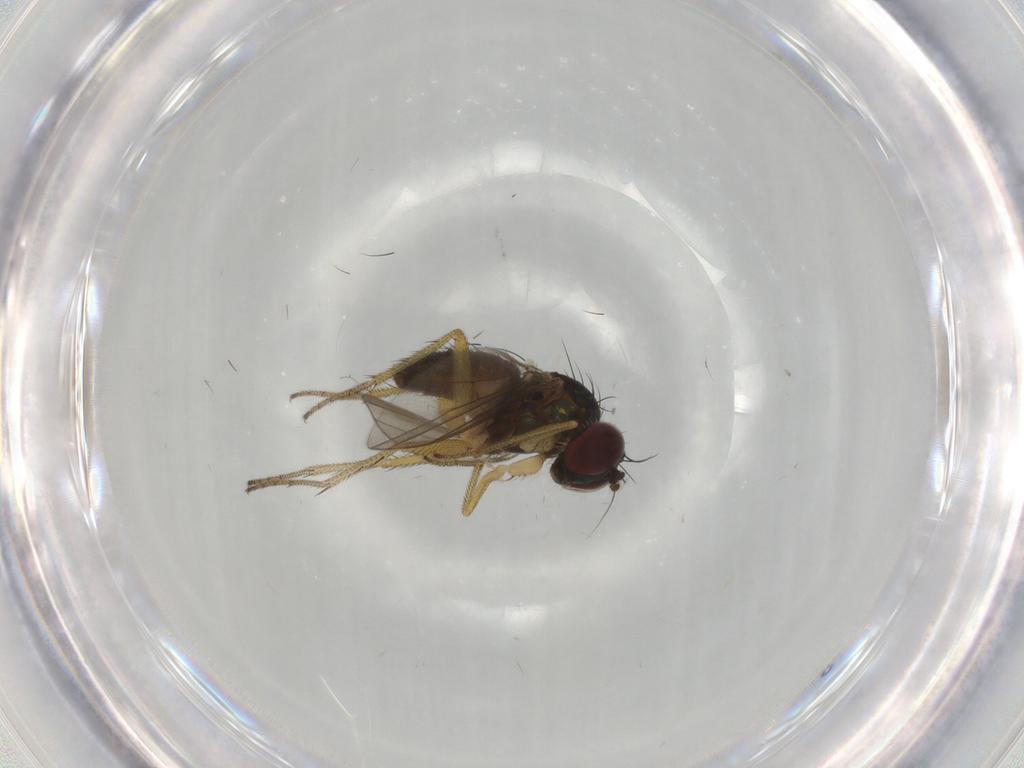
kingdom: Animalia
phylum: Arthropoda
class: Insecta
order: Diptera
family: Dolichopodidae
